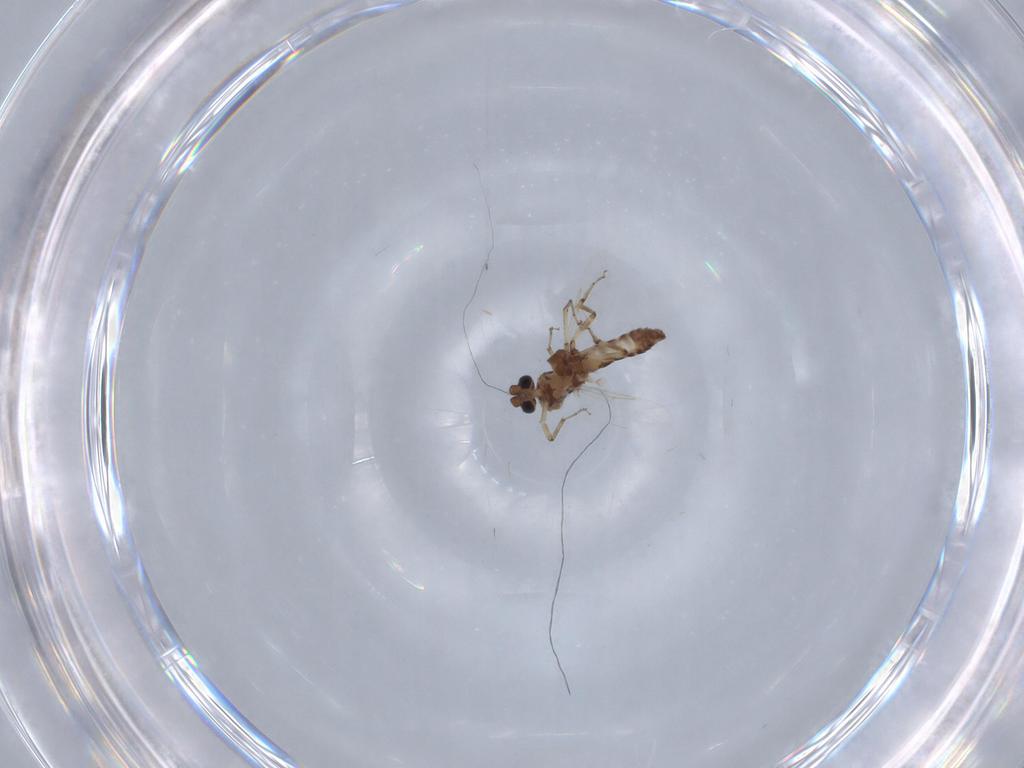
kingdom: Animalia
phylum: Arthropoda
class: Insecta
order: Diptera
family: Ceratopogonidae
